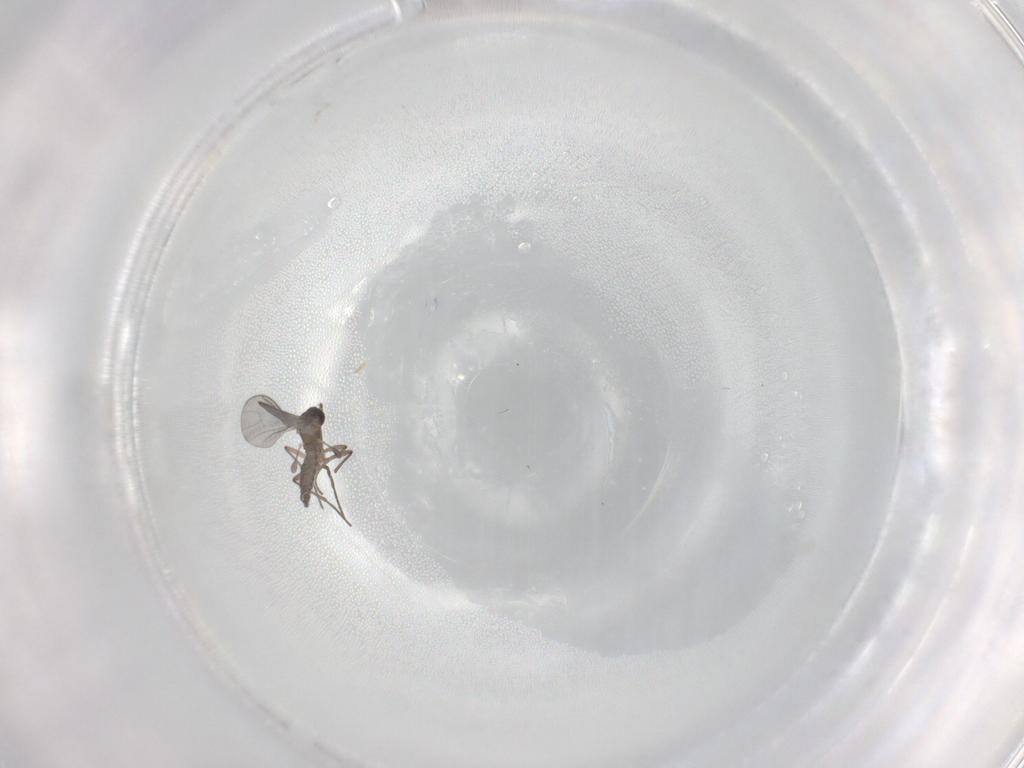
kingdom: Animalia
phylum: Arthropoda
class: Insecta
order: Diptera
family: Sciaridae
